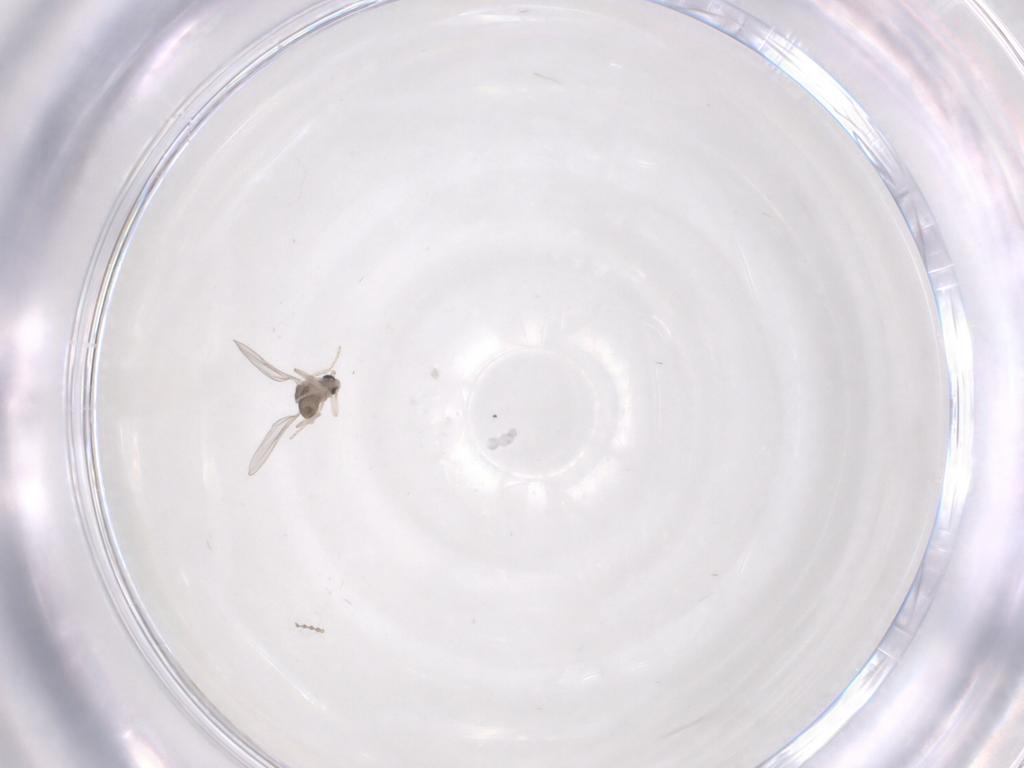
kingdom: Animalia
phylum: Arthropoda
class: Insecta
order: Diptera
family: Cecidomyiidae
